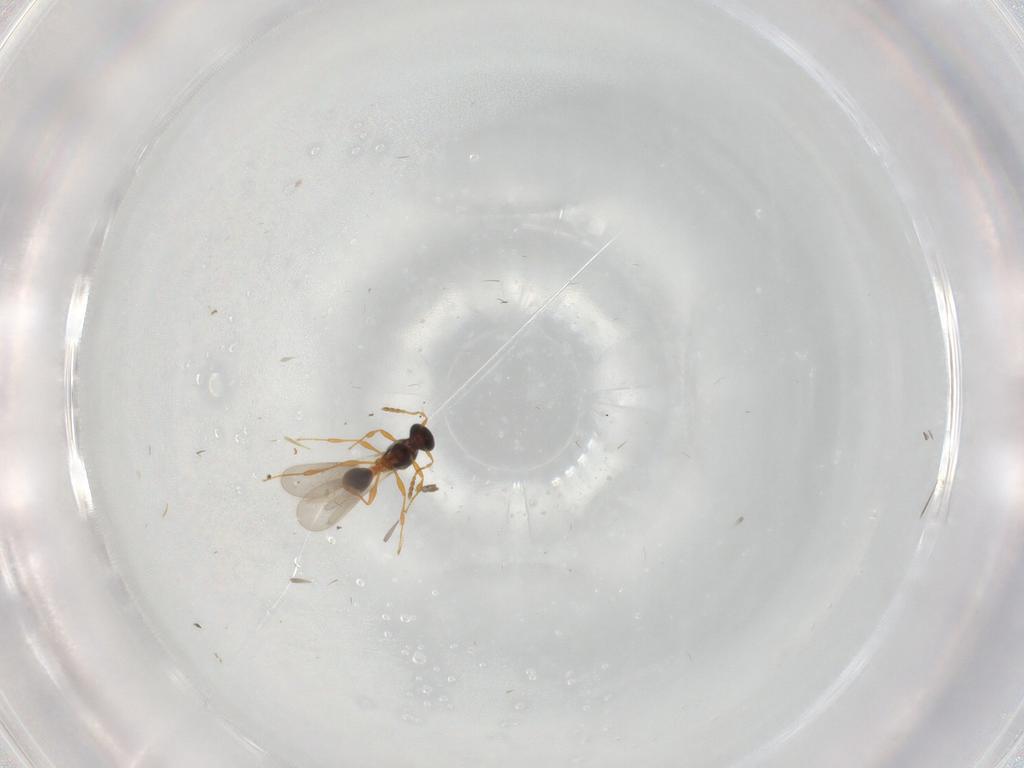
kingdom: Animalia
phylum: Arthropoda
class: Insecta
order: Hymenoptera
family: Platygastridae
